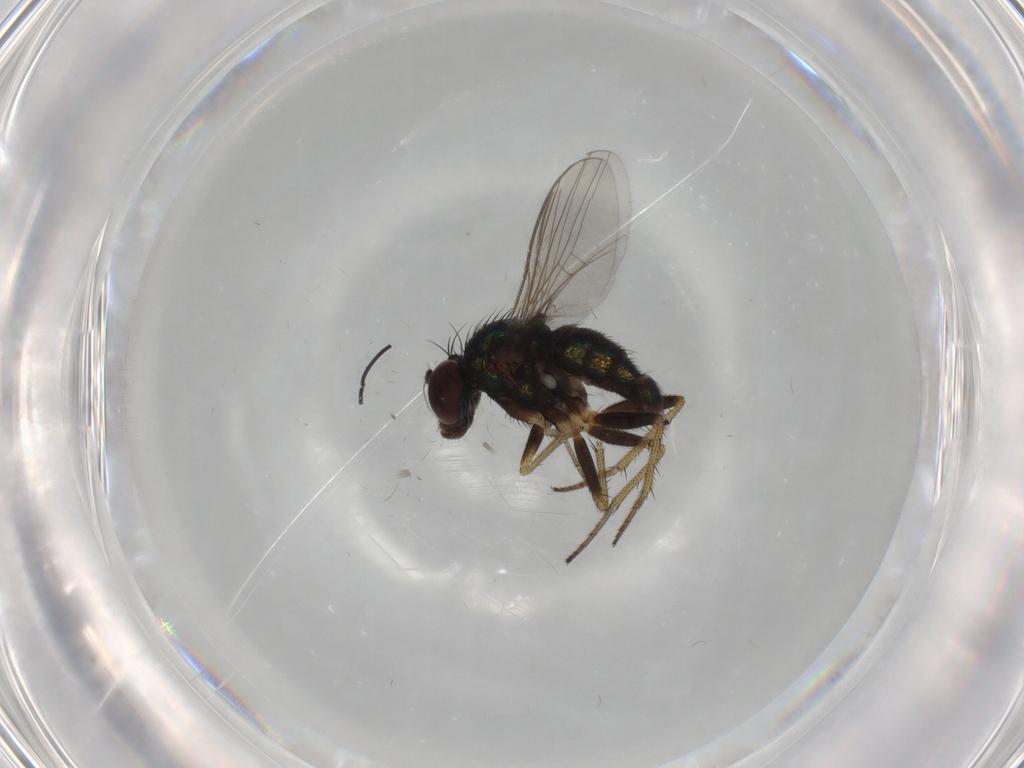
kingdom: Animalia
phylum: Arthropoda
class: Insecta
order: Diptera
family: Dolichopodidae
